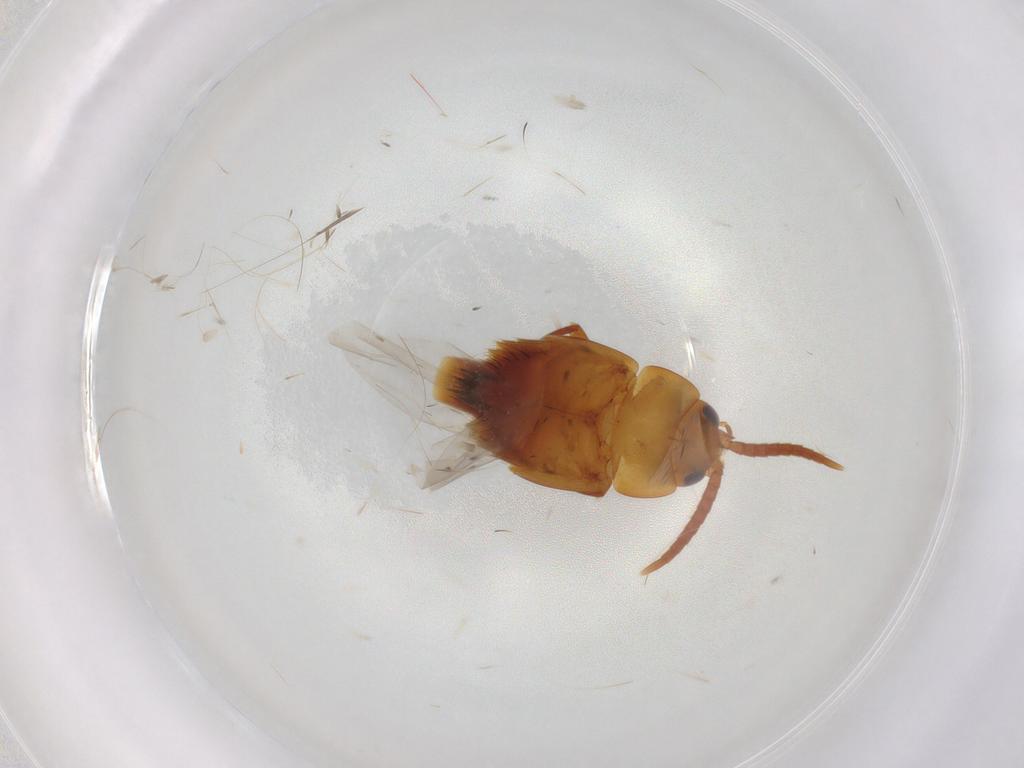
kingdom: Animalia
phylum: Arthropoda
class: Insecta
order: Coleoptera
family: Staphylinidae
